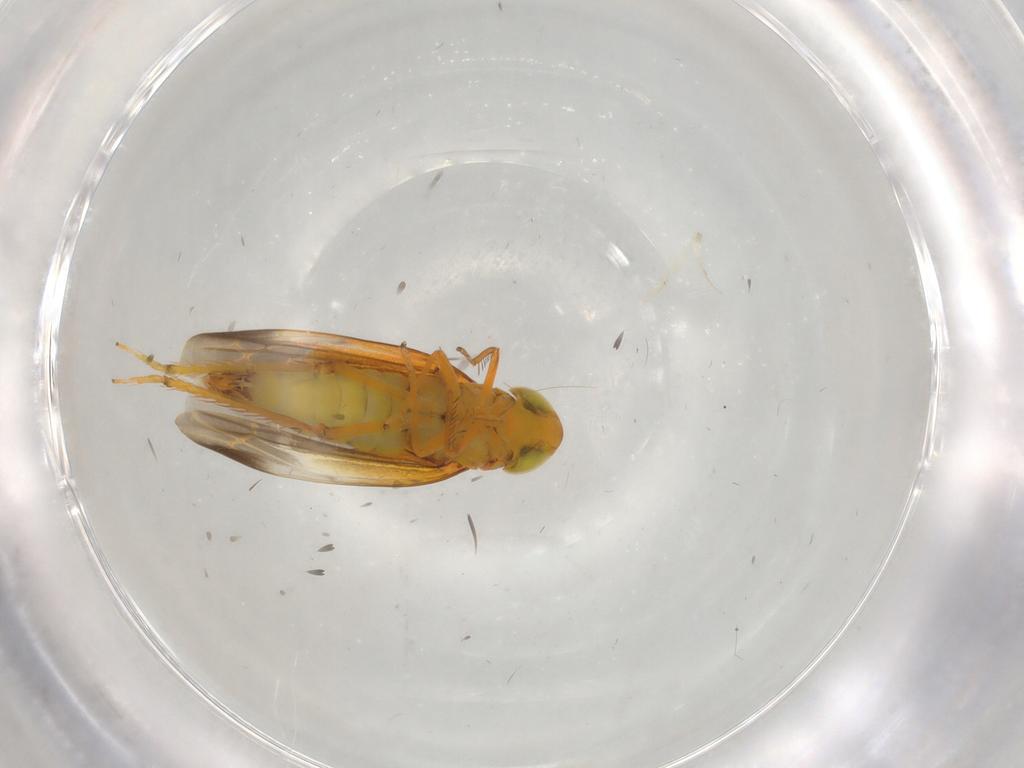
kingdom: Animalia
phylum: Arthropoda
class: Insecta
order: Hemiptera
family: Cicadellidae
